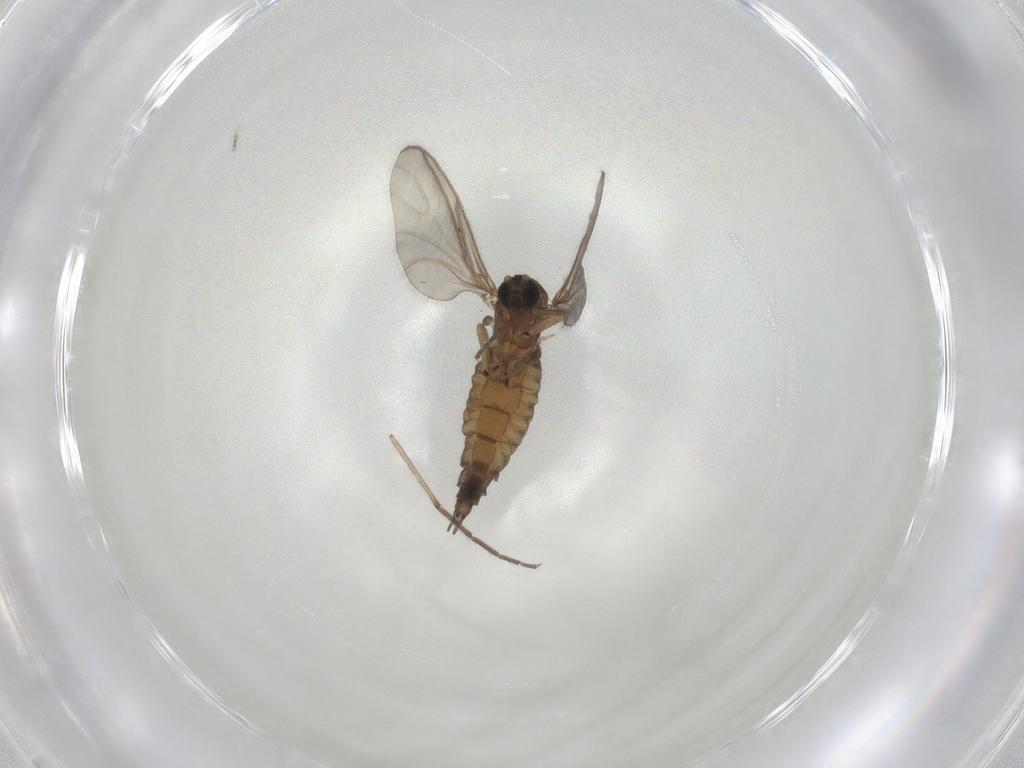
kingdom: Animalia
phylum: Arthropoda
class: Insecta
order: Diptera
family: Sciaridae
